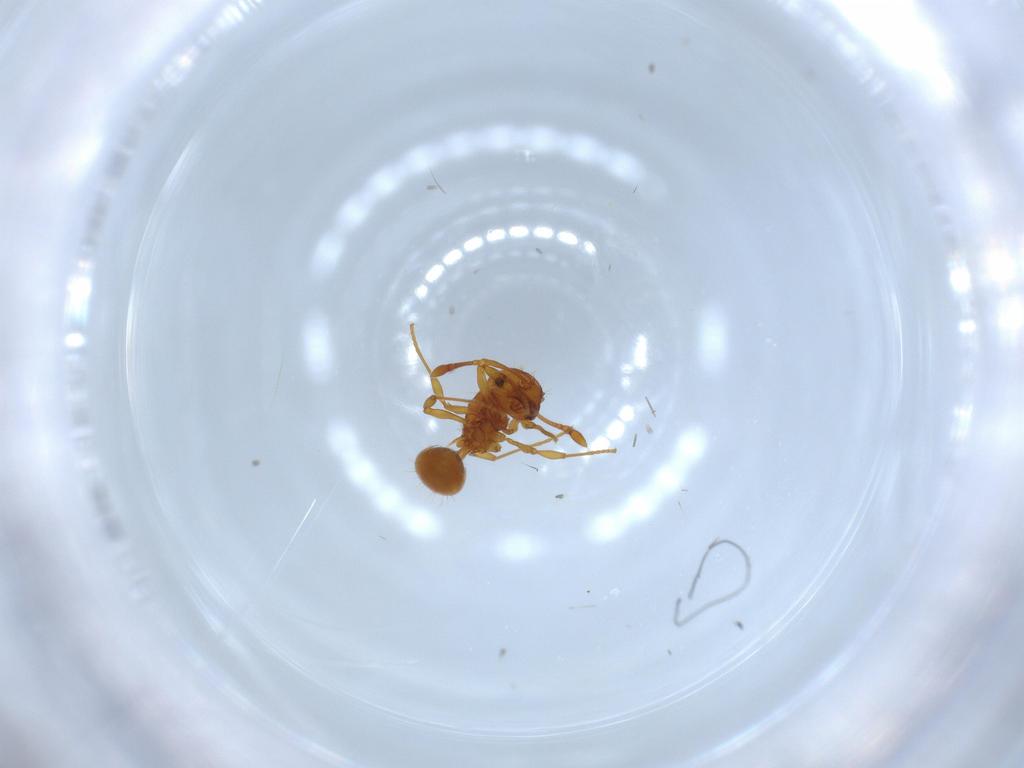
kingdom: Animalia
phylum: Arthropoda
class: Insecta
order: Hymenoptera
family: Formicidae
